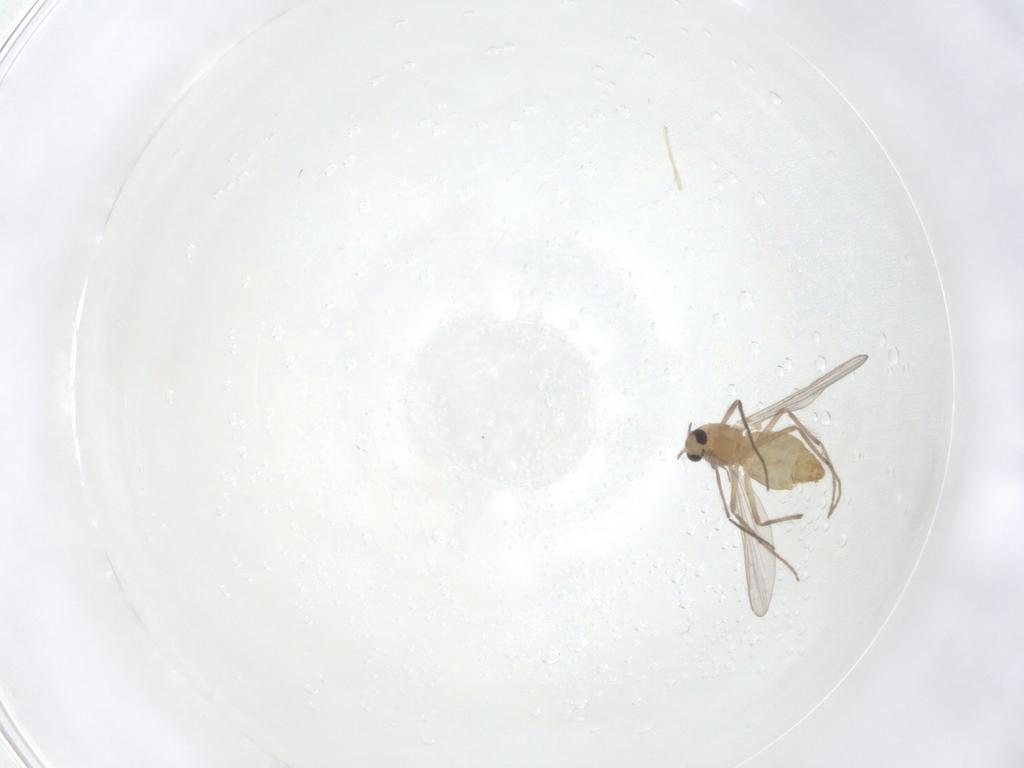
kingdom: Animalia
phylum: Arthropoda
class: Insecta
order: Diptera
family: Chironomidae
